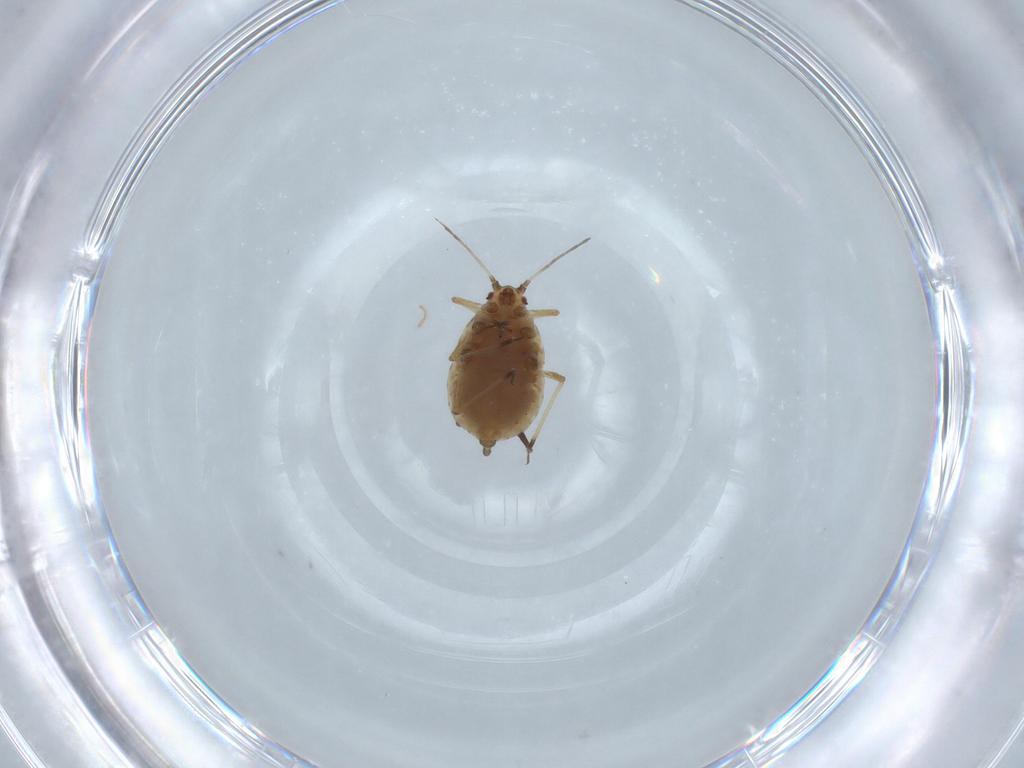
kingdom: Animalia
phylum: Arthropoda
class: Insecta
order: Hemiptera
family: Aphididae
